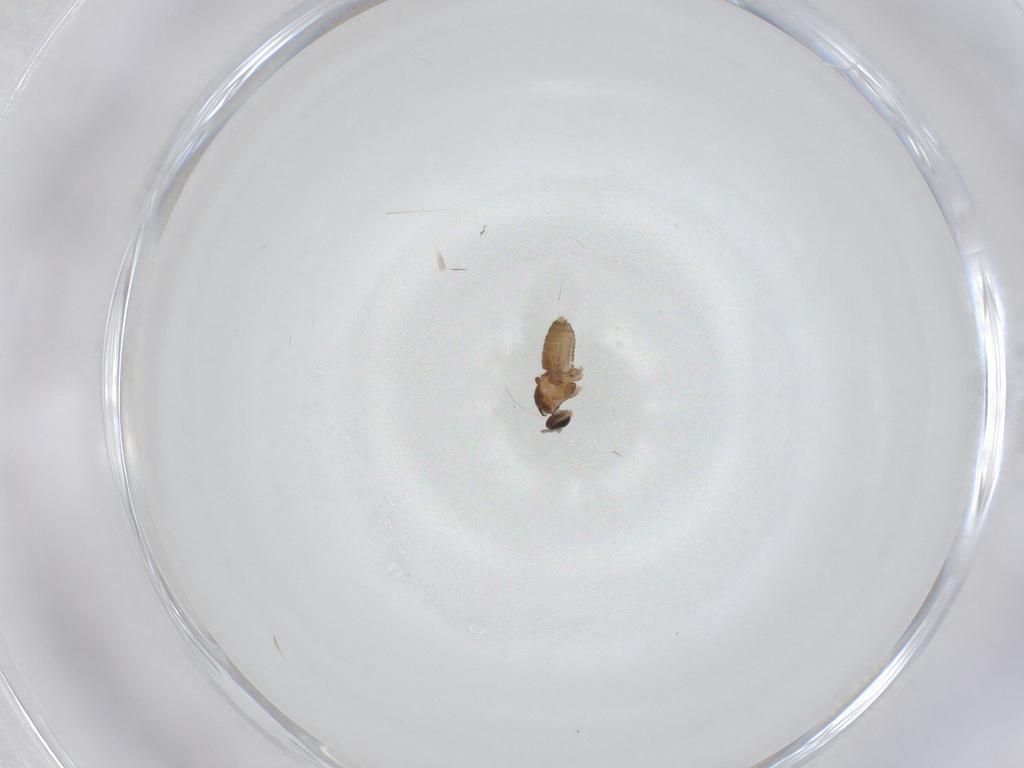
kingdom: Animalia
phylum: Arthropoda
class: Insecta
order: Diptera
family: Cecidomyiidae
